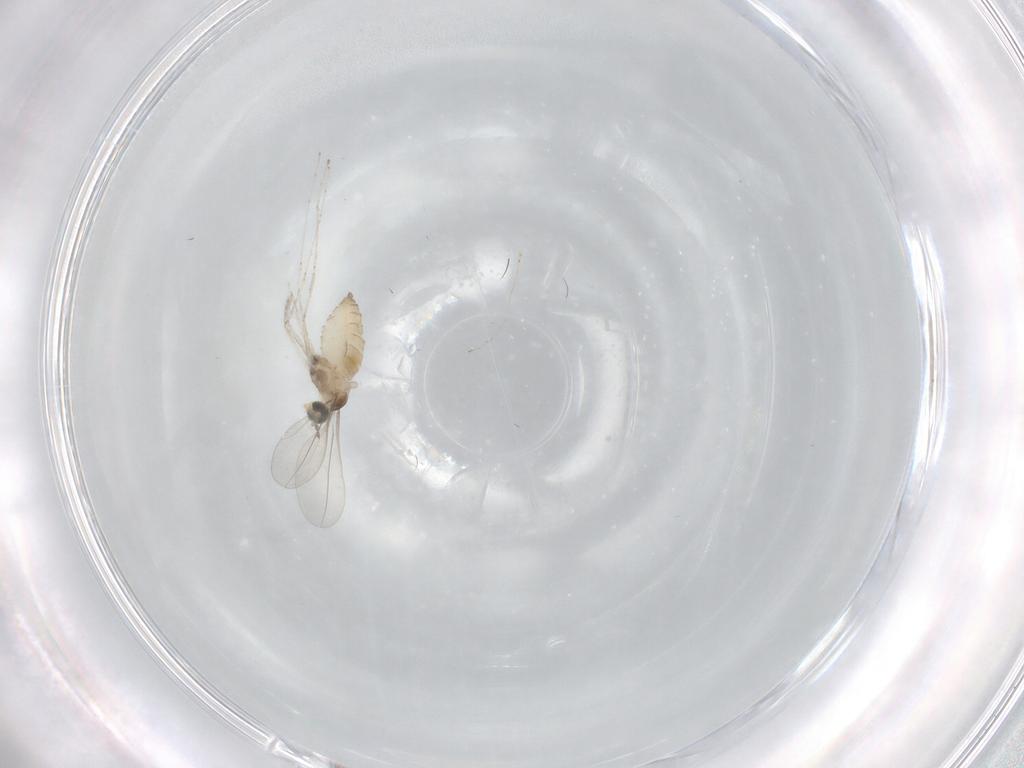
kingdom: Animalia
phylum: Arthropoda
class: Insecta
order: Diptera
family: Cecidomyiidae
